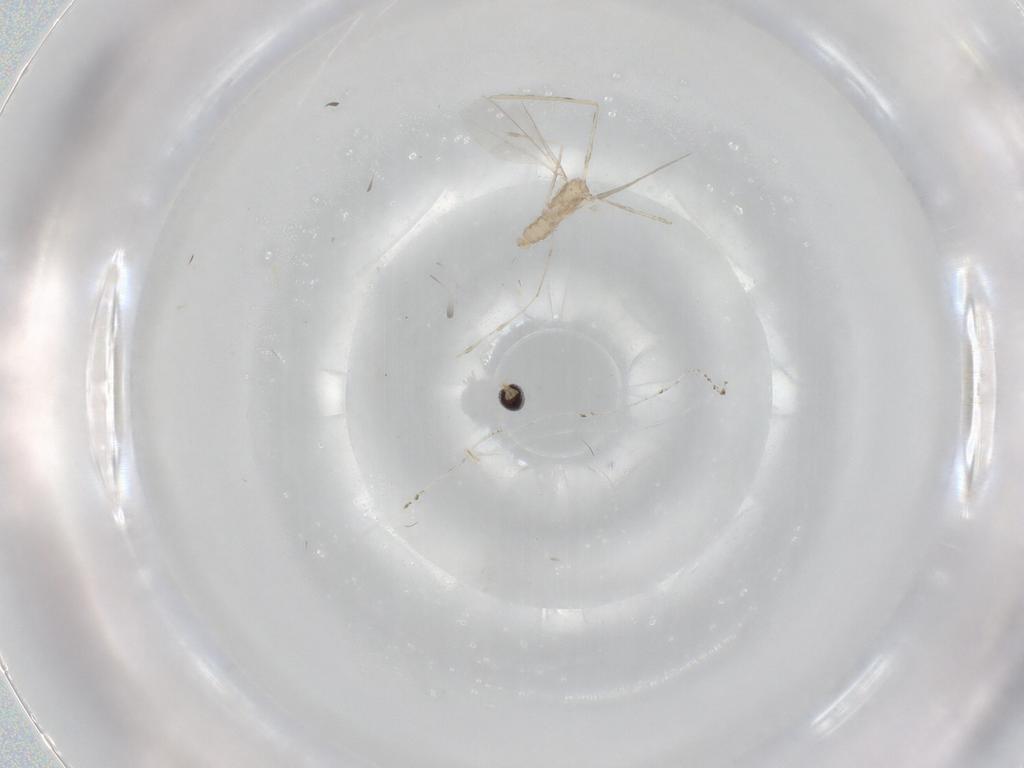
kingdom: Animalia
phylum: Arthropoda
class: Insecta
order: Diptera
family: Cecidomyiidae
